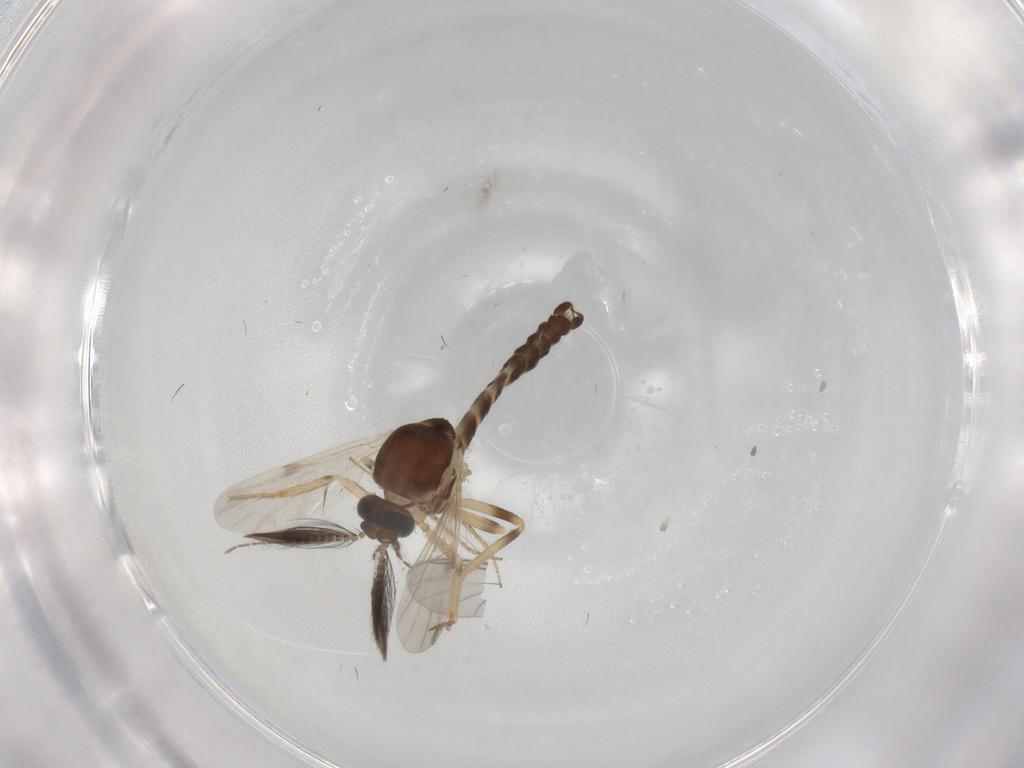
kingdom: Animalia
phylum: Arthropoda
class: Insecta
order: Diptera
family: Ceratopogonidae
